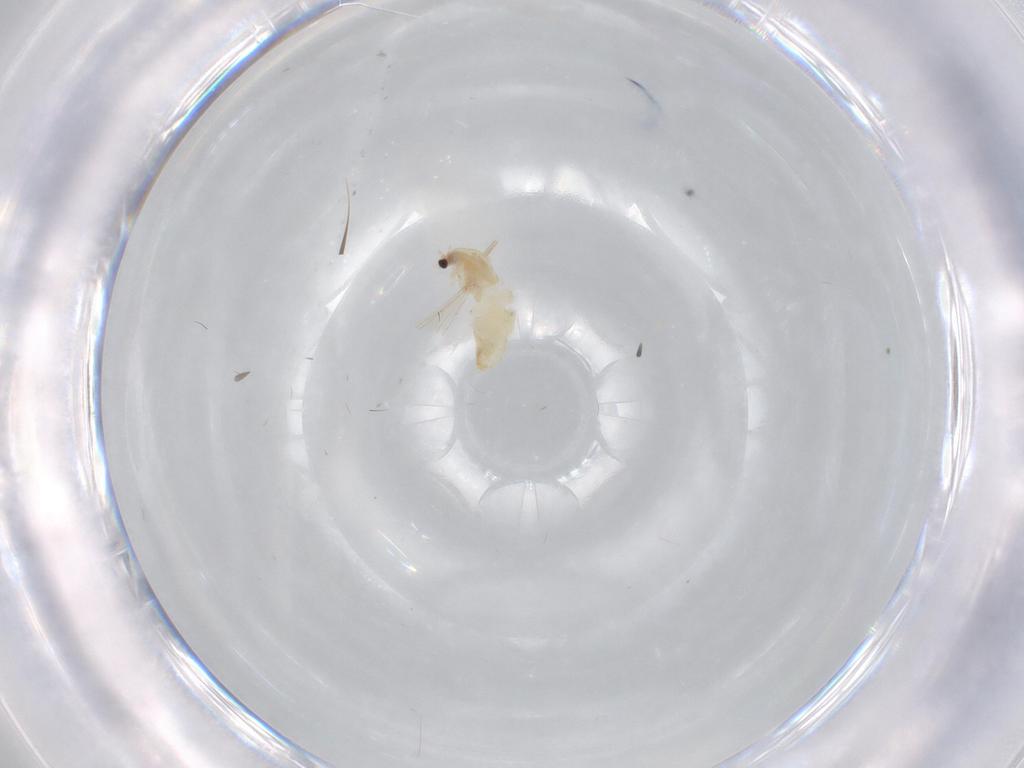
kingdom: Animalia
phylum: Arthropoda
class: Insecta
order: Diptera
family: Chironomidae
